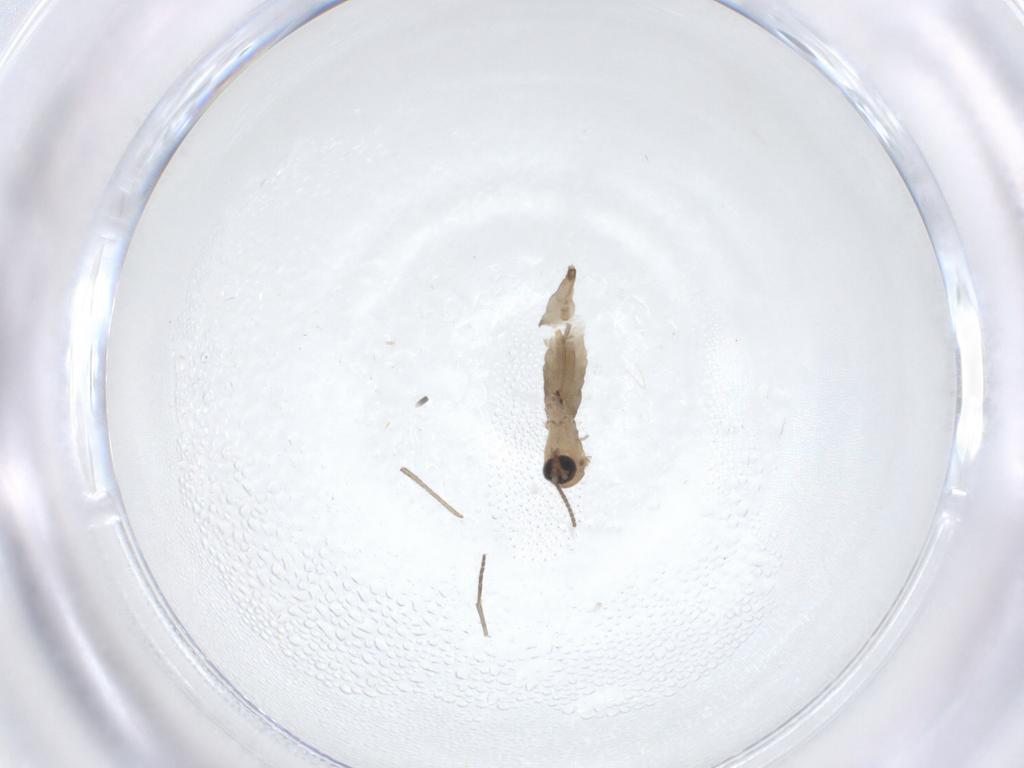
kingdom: Animalia
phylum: Arthropoda
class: Insecta
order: Diptera
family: Sciaridae
